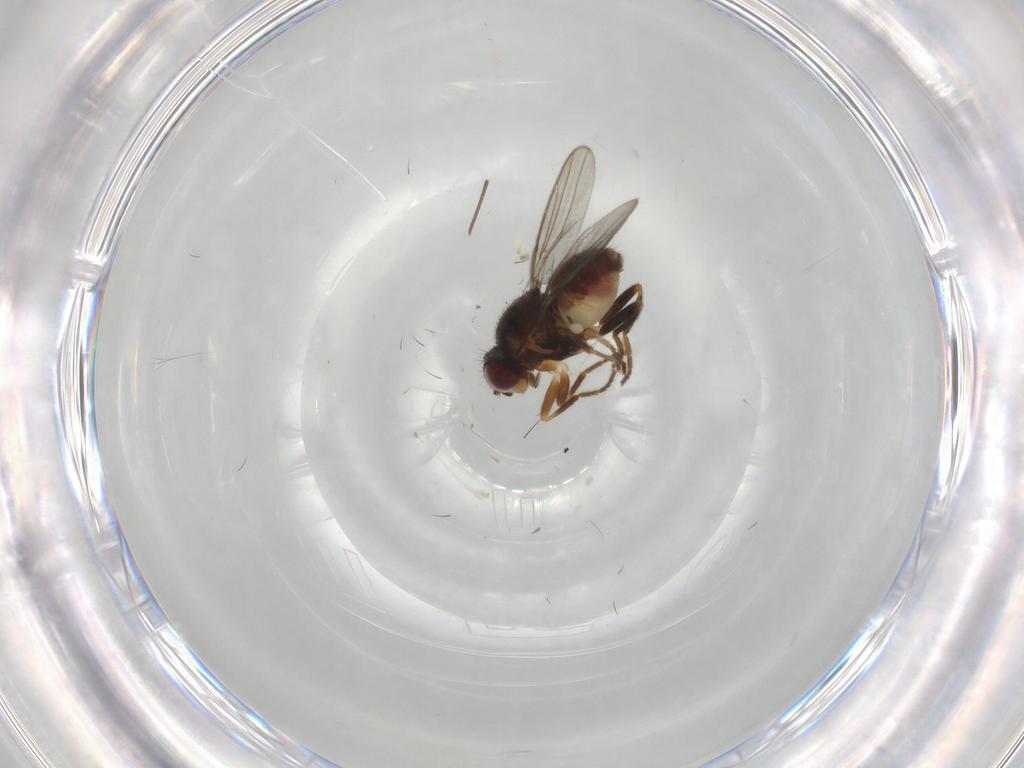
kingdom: Animalia
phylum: Arthropoda
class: Insecta
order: Diptera
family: Chloropidae
